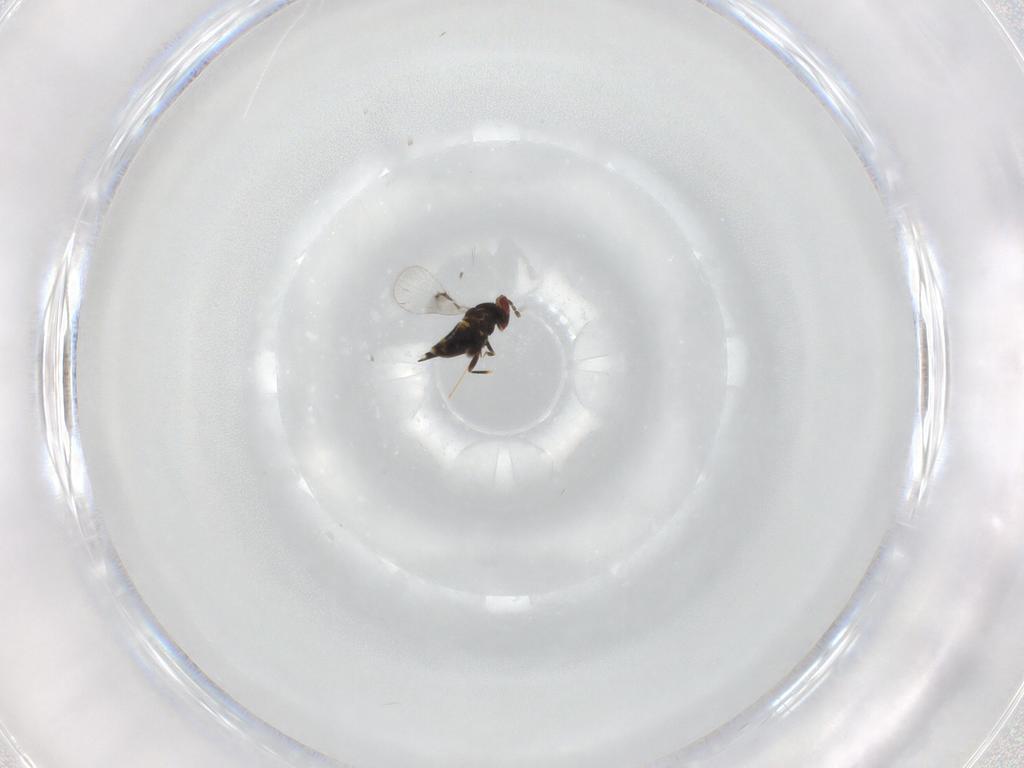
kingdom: Animalia
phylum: Arthropoda
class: Insecta
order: Hymenoptera
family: Trichogrammatidae
